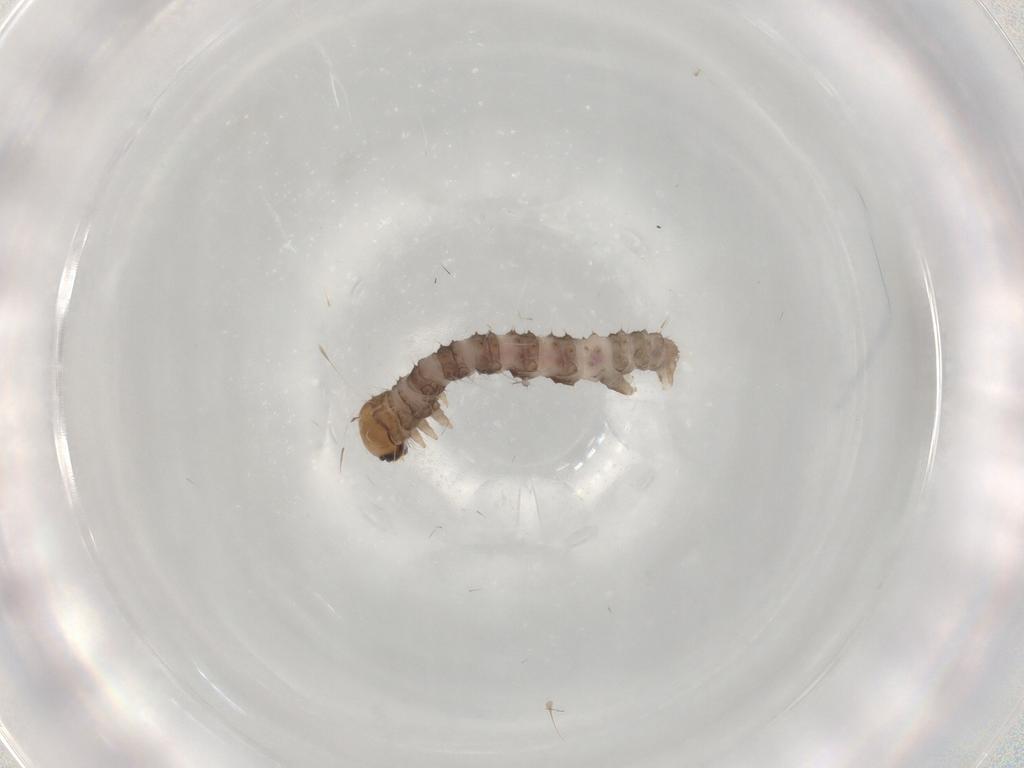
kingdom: Animalia
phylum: Arthropoda
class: Insecta
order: Lepidoptera
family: Geometridae
